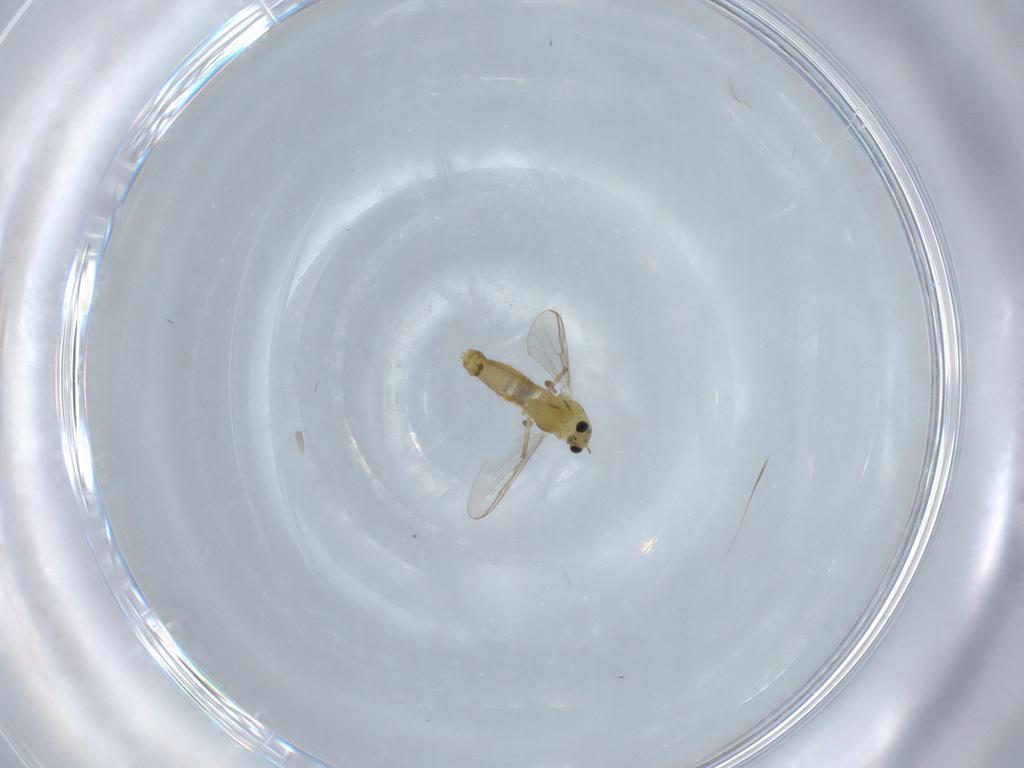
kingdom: Animalia
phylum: Arthropoda
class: Insecta
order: Diptera
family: Chironomidae
